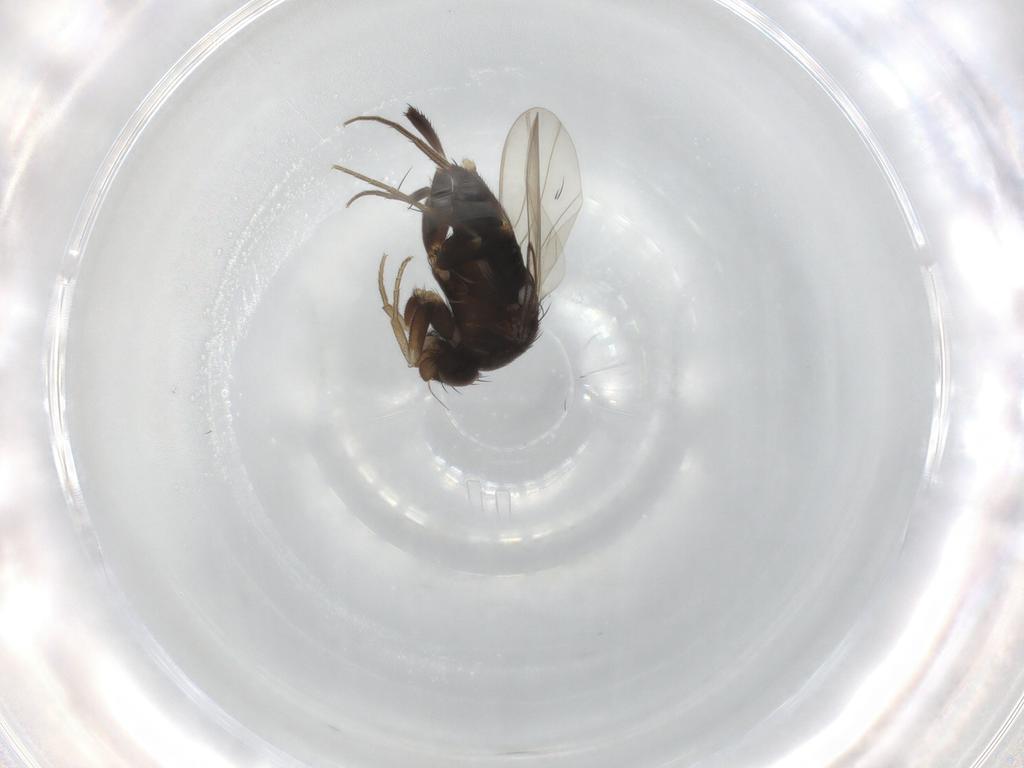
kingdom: Animalia
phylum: Arthropoda
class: Insecta
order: Diptera
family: Phoridae
